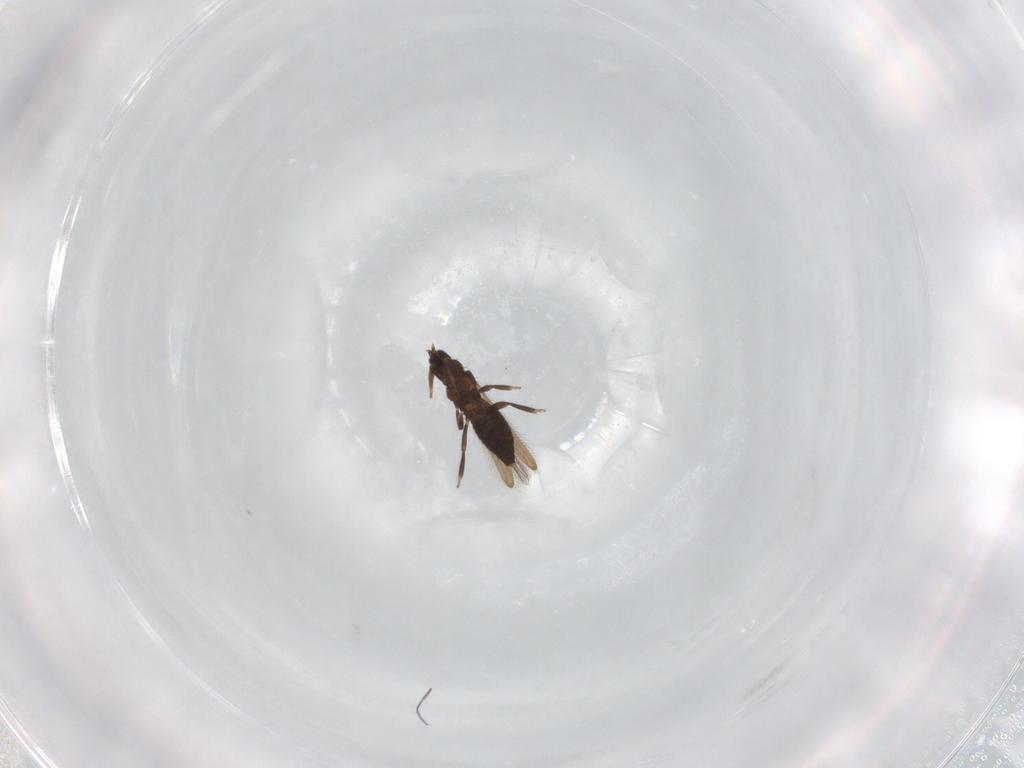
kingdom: Animalia
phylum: Arthropoda
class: Insecta
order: Thysanoptera
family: Melanthripidae
